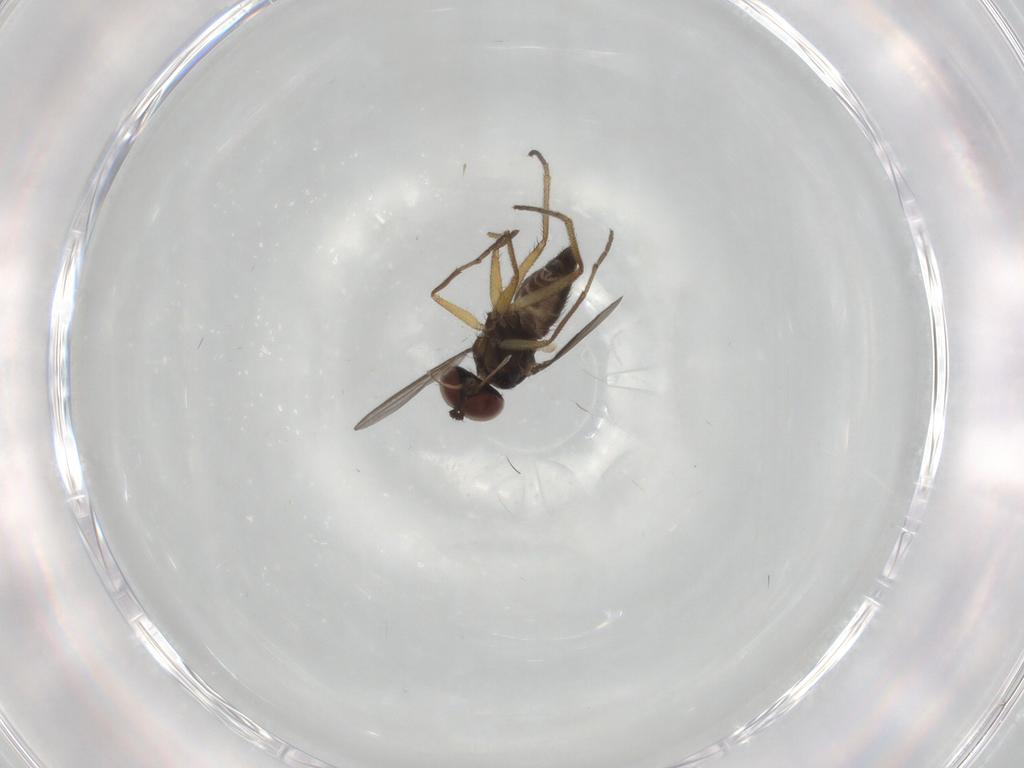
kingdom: Animalia
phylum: Arthropoda
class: Insecta
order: Diptera
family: Dolichopodidae
